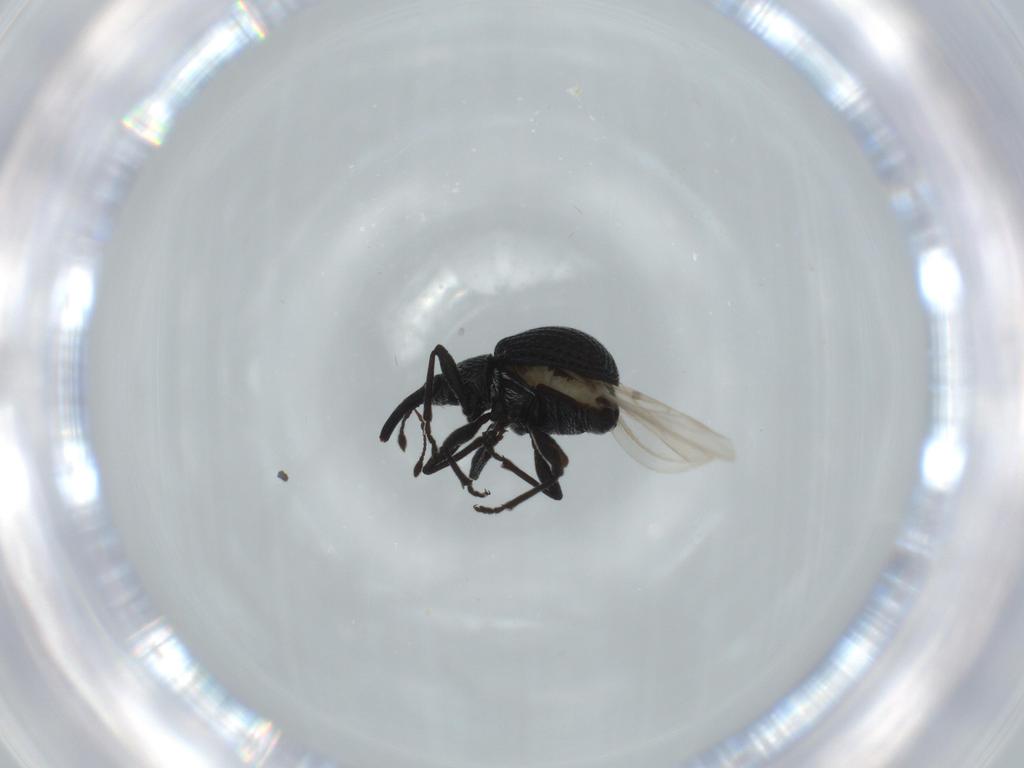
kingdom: Animalia
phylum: Arthropoda
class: Insecta
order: Coleoptera
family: Brentidae
